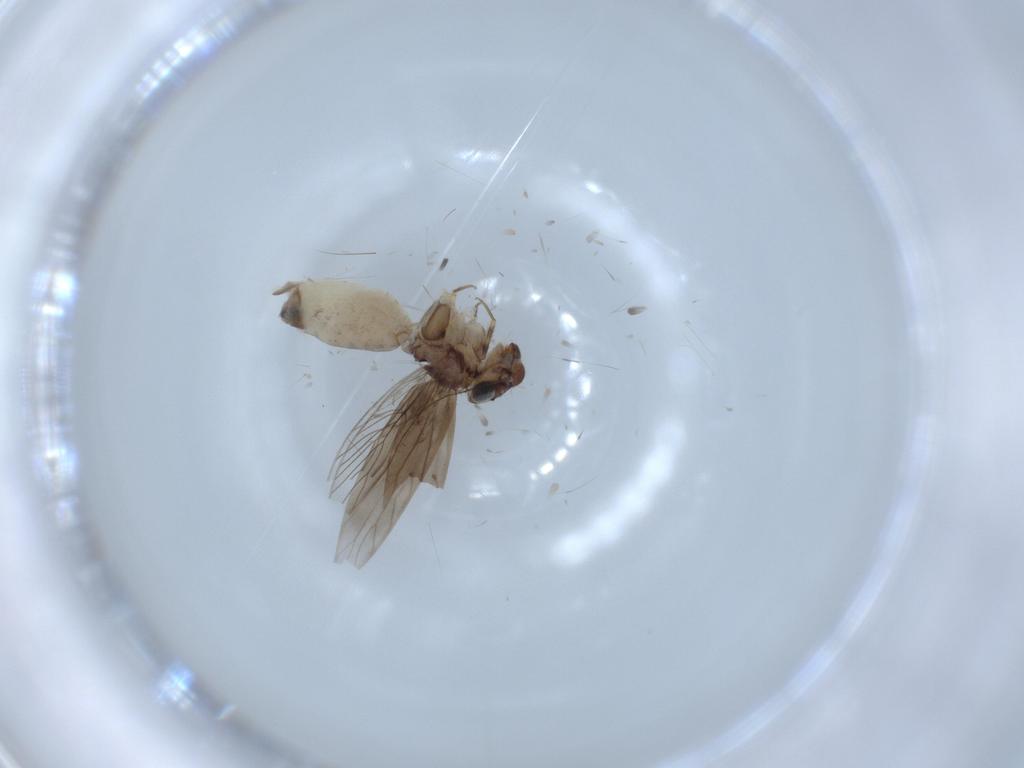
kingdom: Animalia
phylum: Arthropoda
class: Insecta
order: Psocodea
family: Lepidopsocidae
